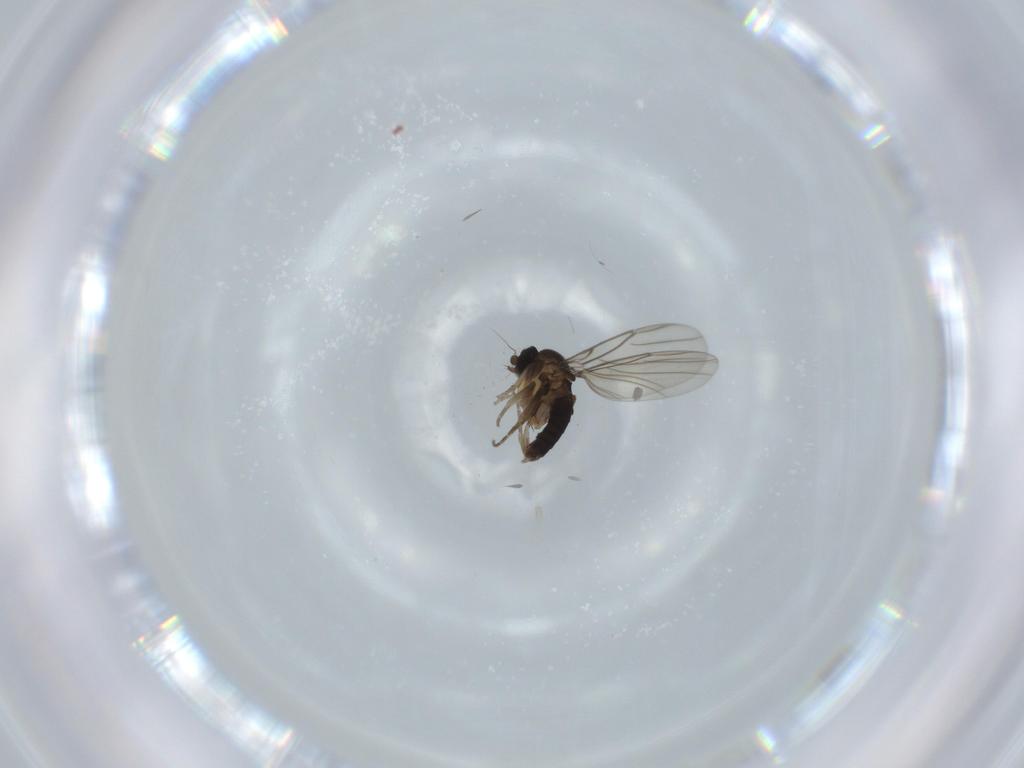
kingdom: Animalia
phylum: Arthropoda
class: Insecta
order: Diptera
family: Phoridae
